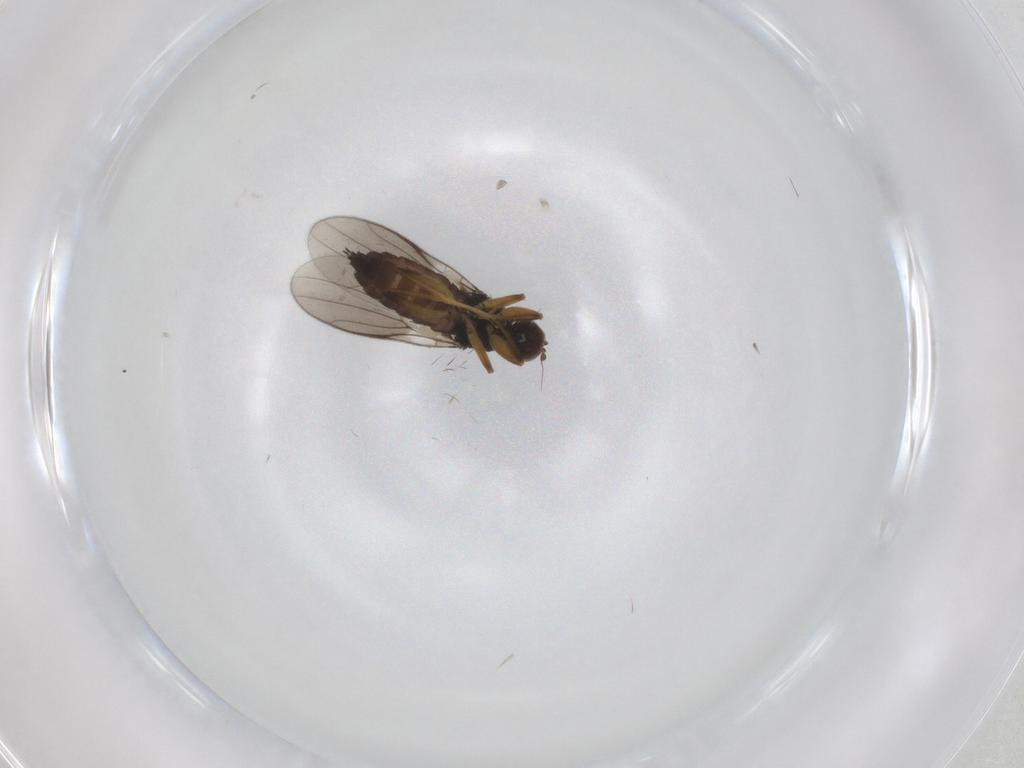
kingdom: Animalia
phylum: Arthropoda
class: Insecta
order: Diptera
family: Hybotidae
